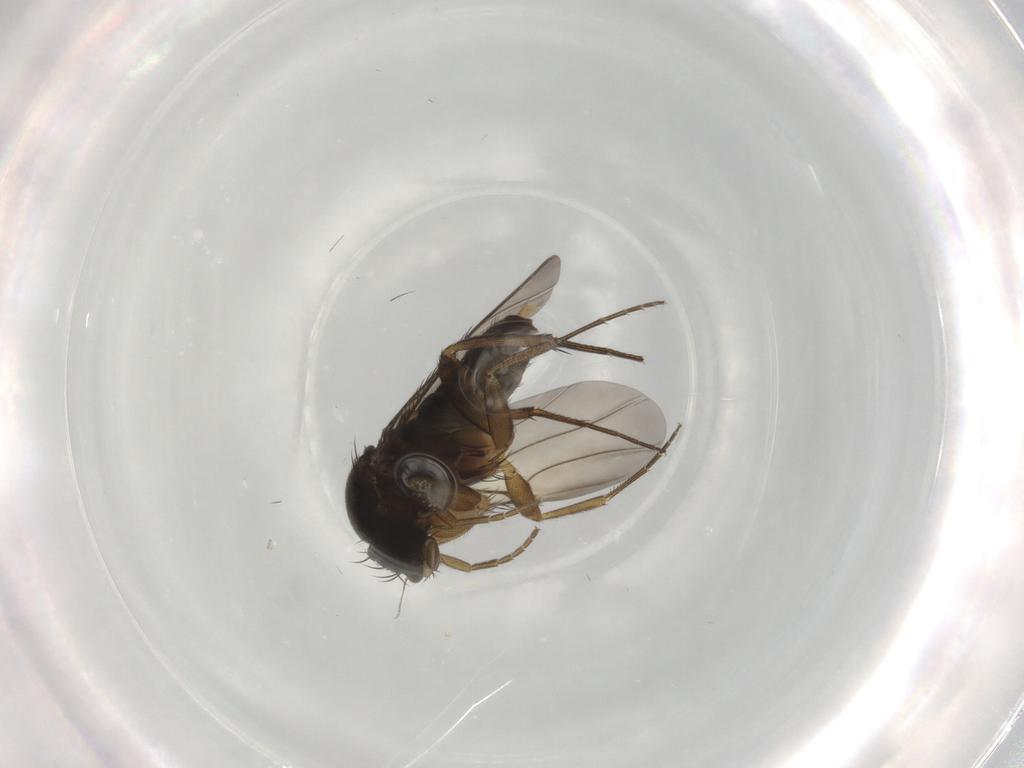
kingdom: Animalia
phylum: Arthropoda
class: Insecta
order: Diptera
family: Phoridae
